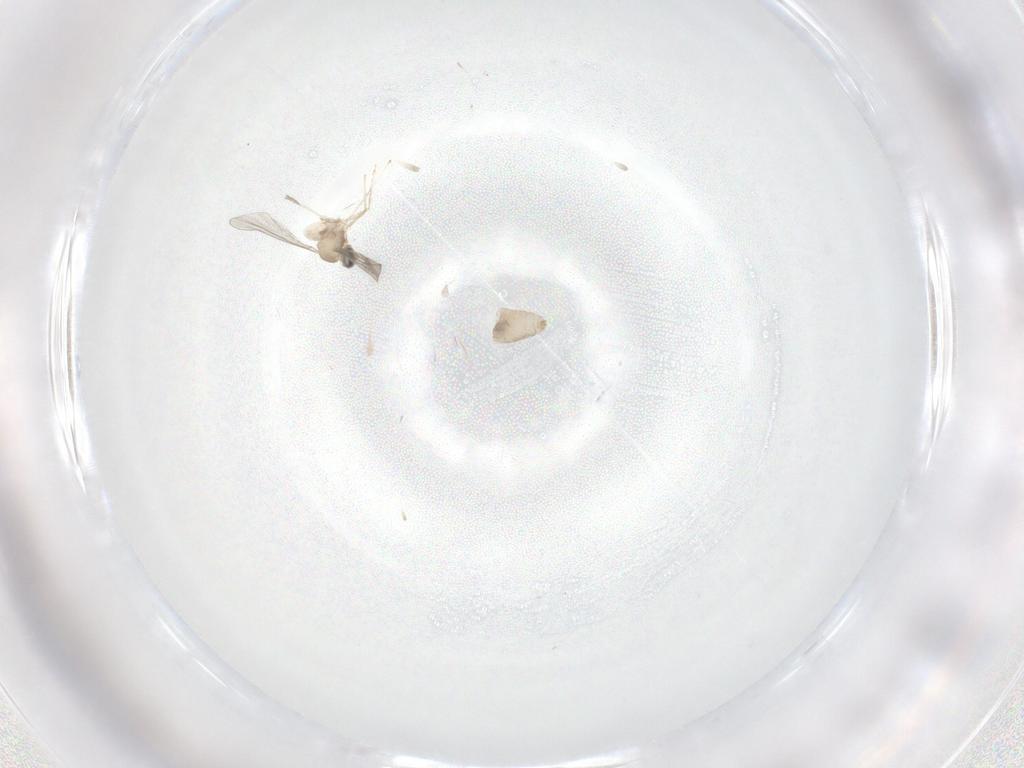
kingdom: Animalia
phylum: Arthropoda
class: Insecta
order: Diptera
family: Cecidomyiidae
